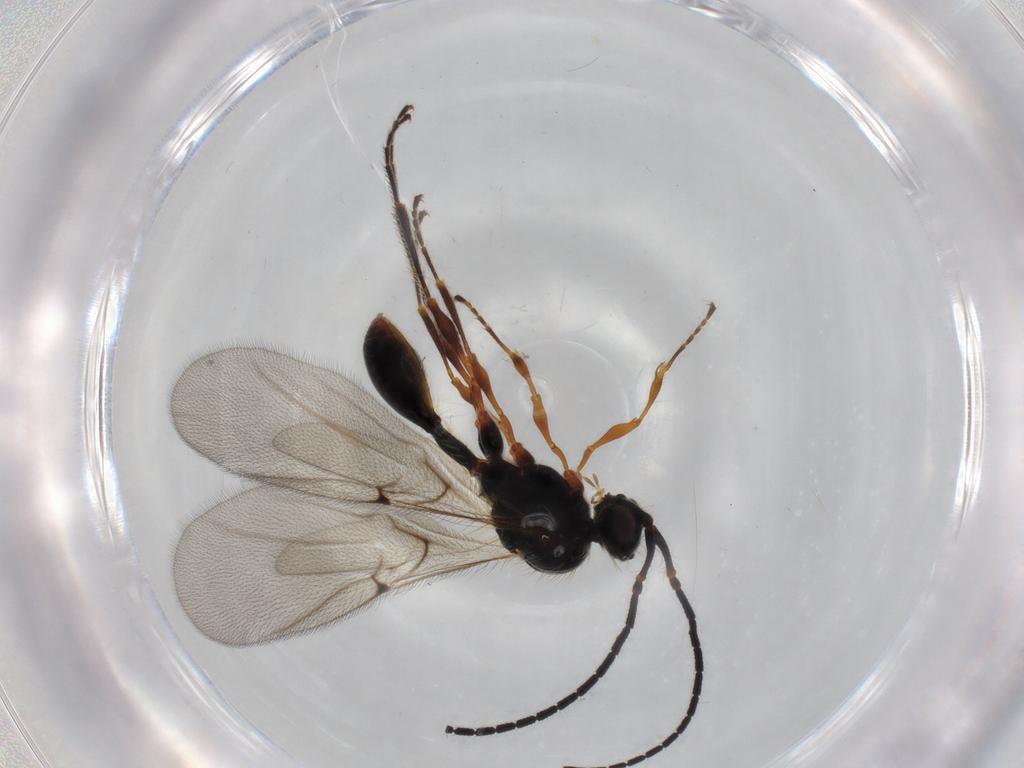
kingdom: Animalia
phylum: Arthropoda
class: Insecta
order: Hymenoptera
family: Diapriidae
